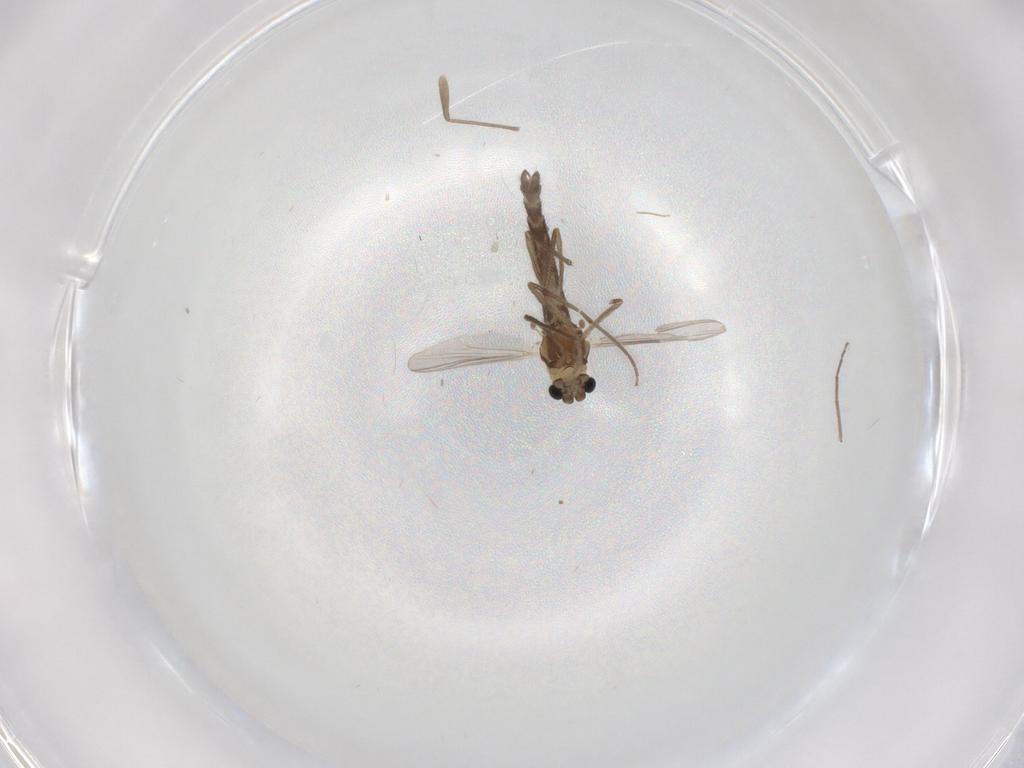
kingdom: Animalia
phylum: Arthropoda
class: Insecta
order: Diptera
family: Chironomidae
